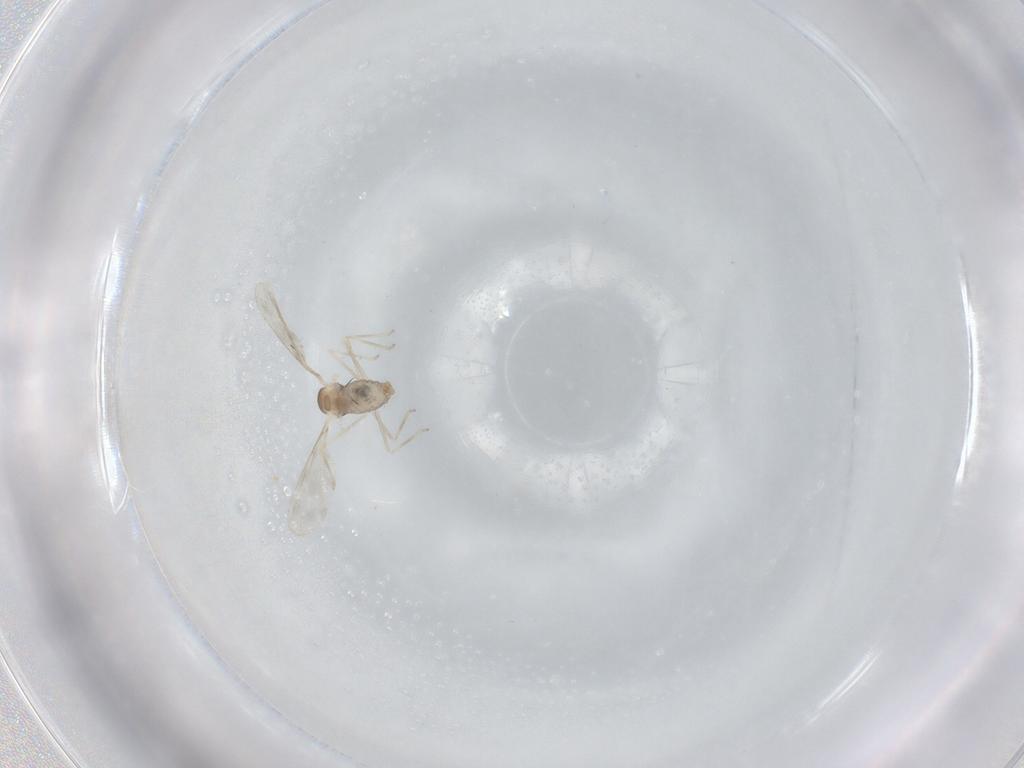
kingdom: Animalia
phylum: Arthropoda
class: Insecta
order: Diptera
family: Cecidomyiidae
